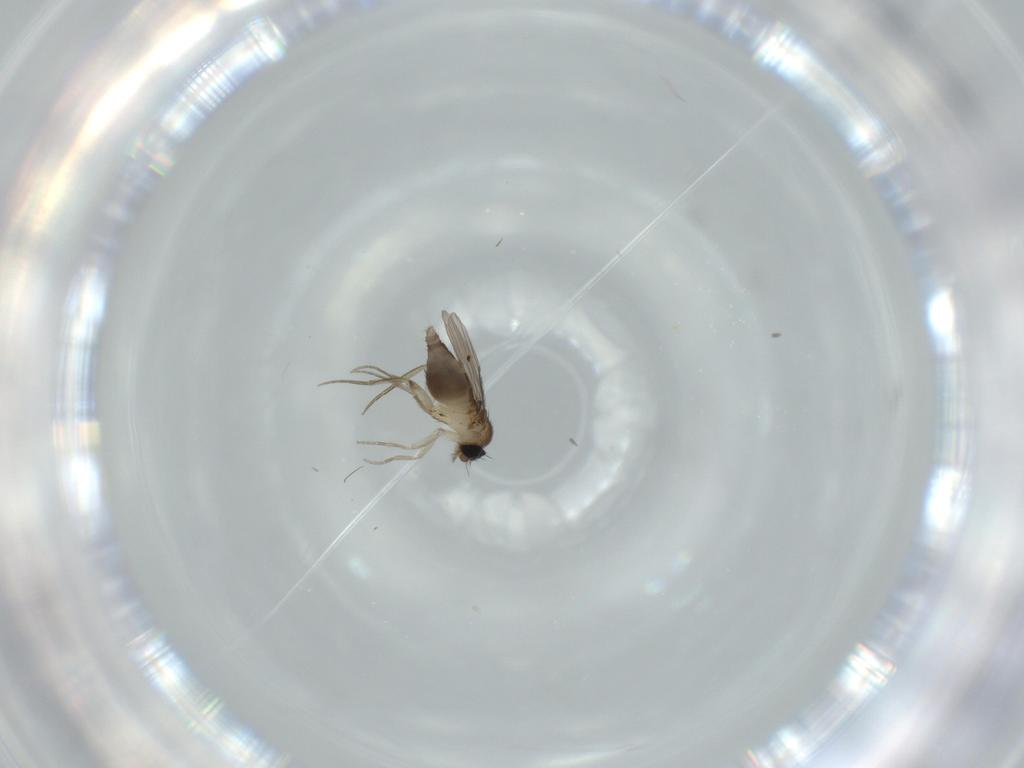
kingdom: Animalia
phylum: Arthropoda
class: Insecta
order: Diptera
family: Phoridae
